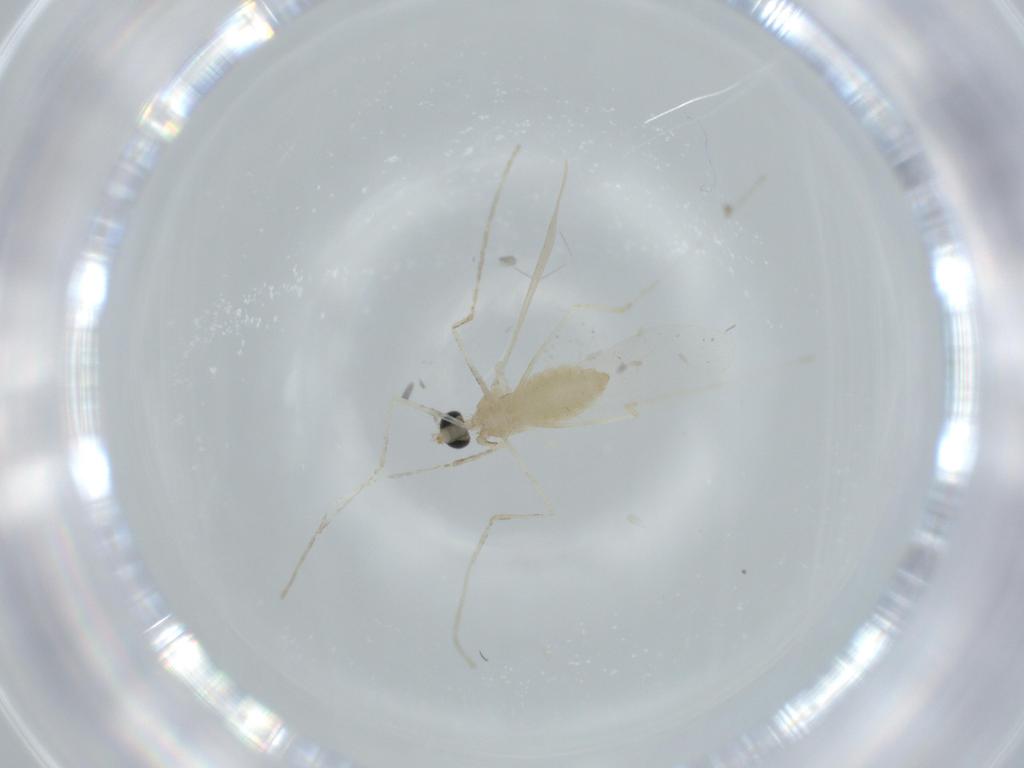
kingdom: Animalia
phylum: Arthropoda
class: Insecta
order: Diptera
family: Cecidomyiidae
